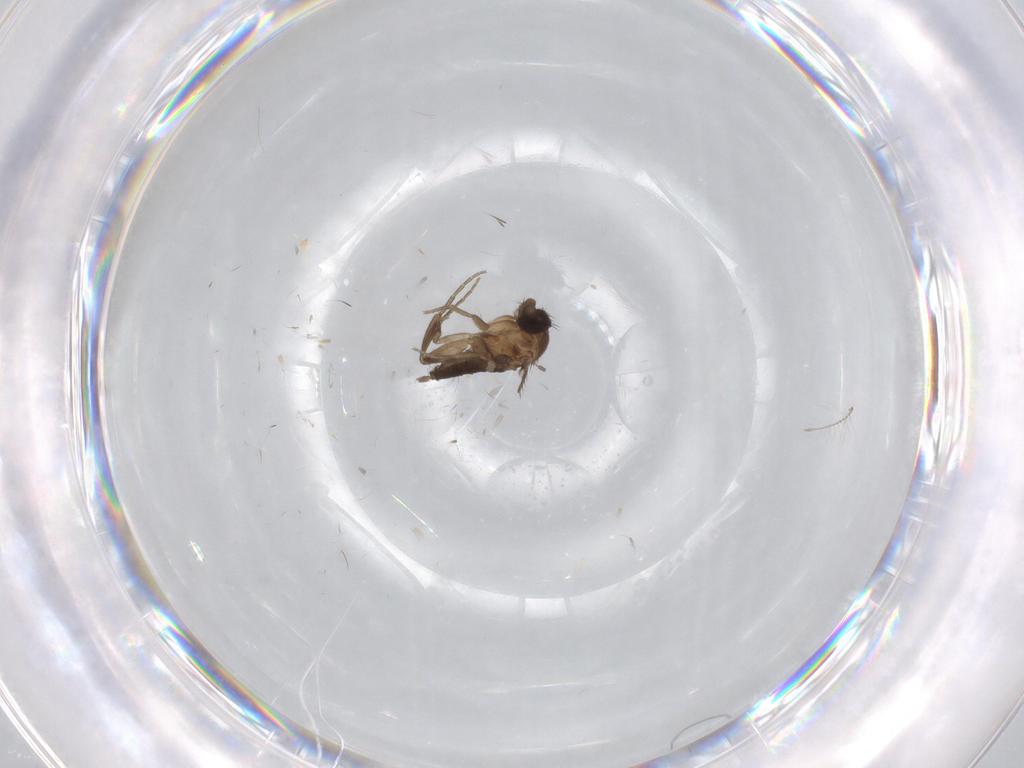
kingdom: Animalia
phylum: Arthropoda
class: Insecta
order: Diptera
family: Phoridae
